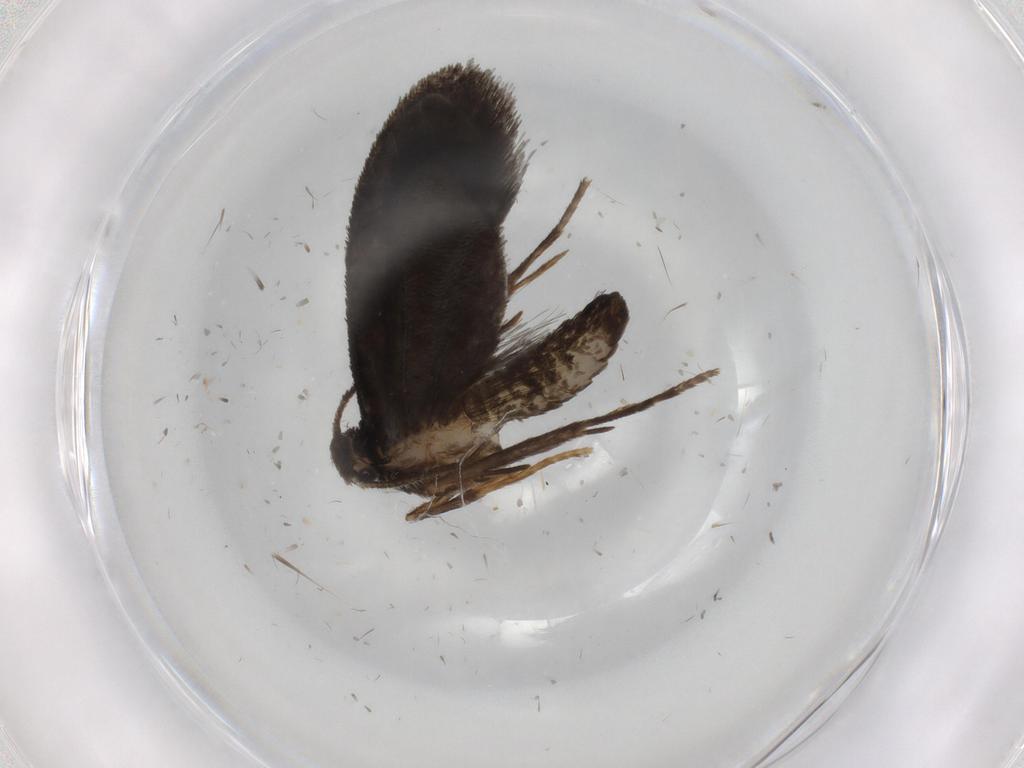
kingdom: Animalia
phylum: Arthropoda
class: Insecta
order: Lepidoptera
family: Psychidae
